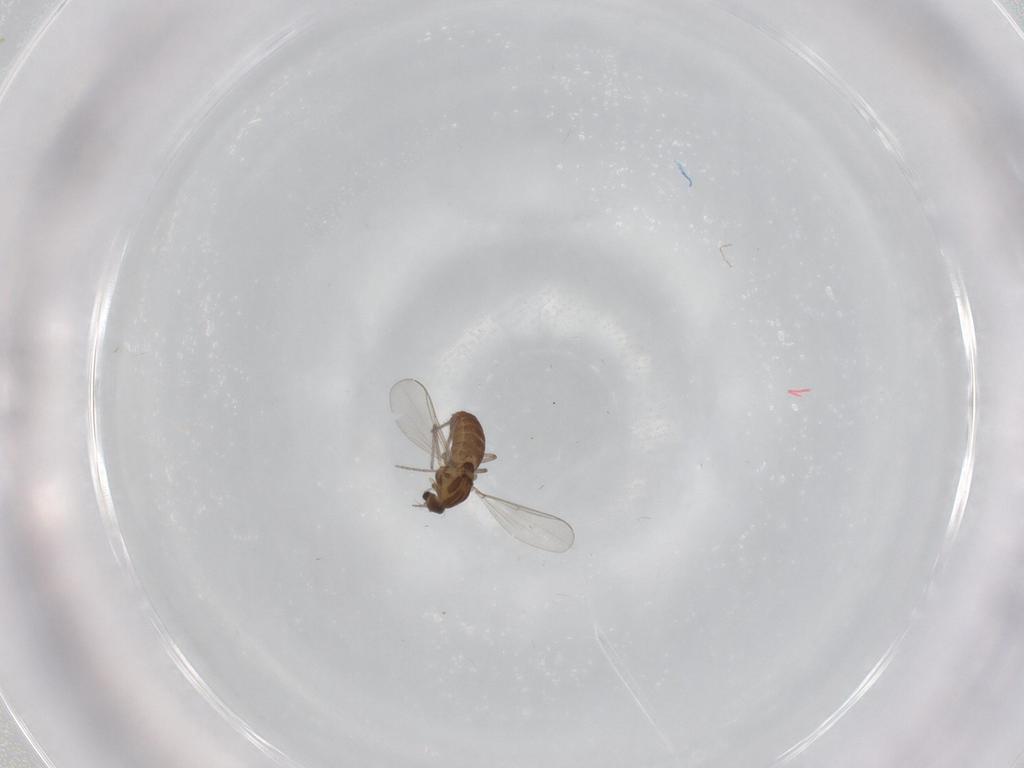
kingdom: Animalia
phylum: Arthropoda
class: Insecta
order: Diptera
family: Chironomidae
